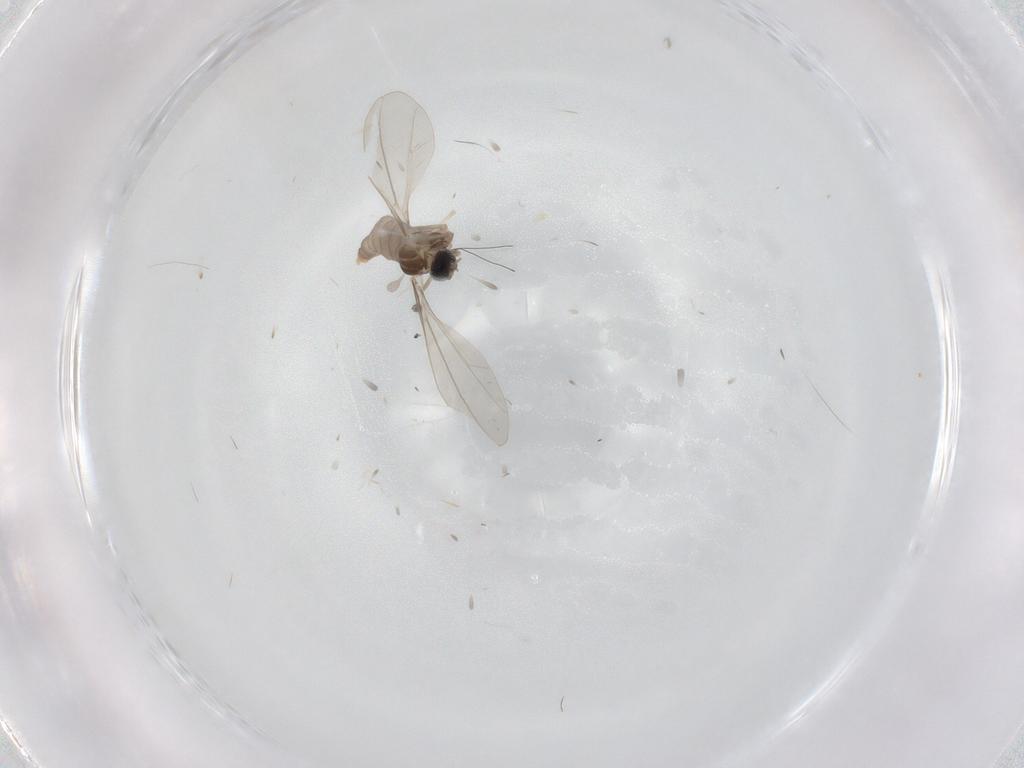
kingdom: Animalia
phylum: Arthropoda
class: Insecta
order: Diptera
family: Cecidomyiidae
